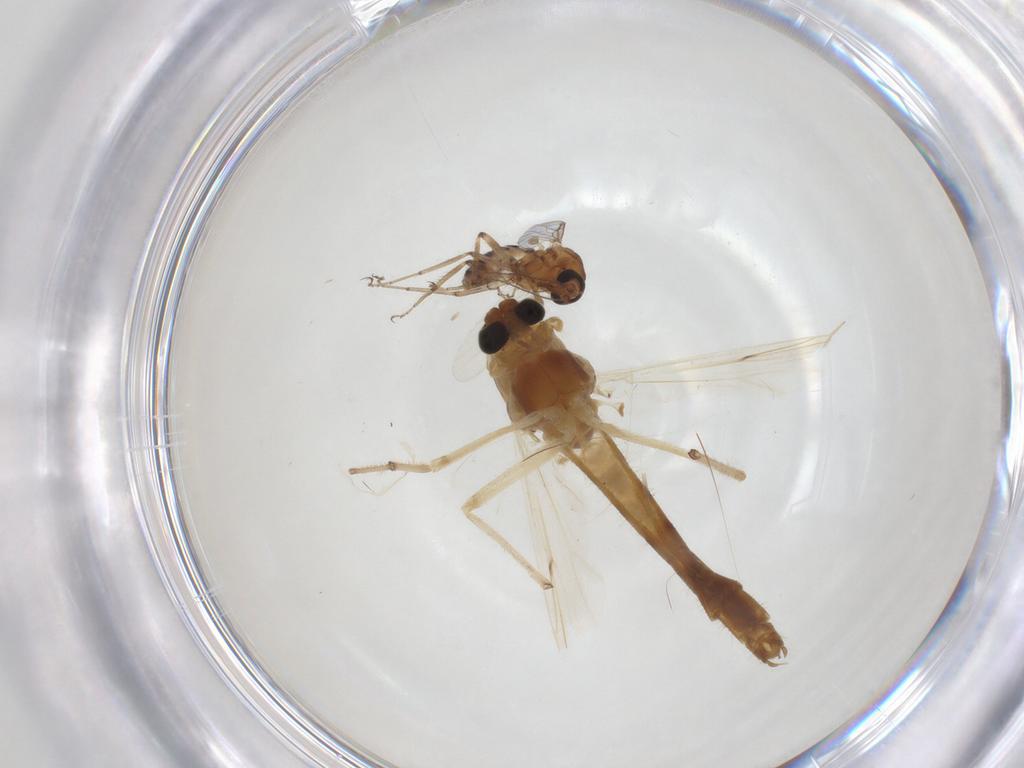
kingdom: Animalia
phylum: Arthropoda
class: Insecta
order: Diptera
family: Chironomidae
